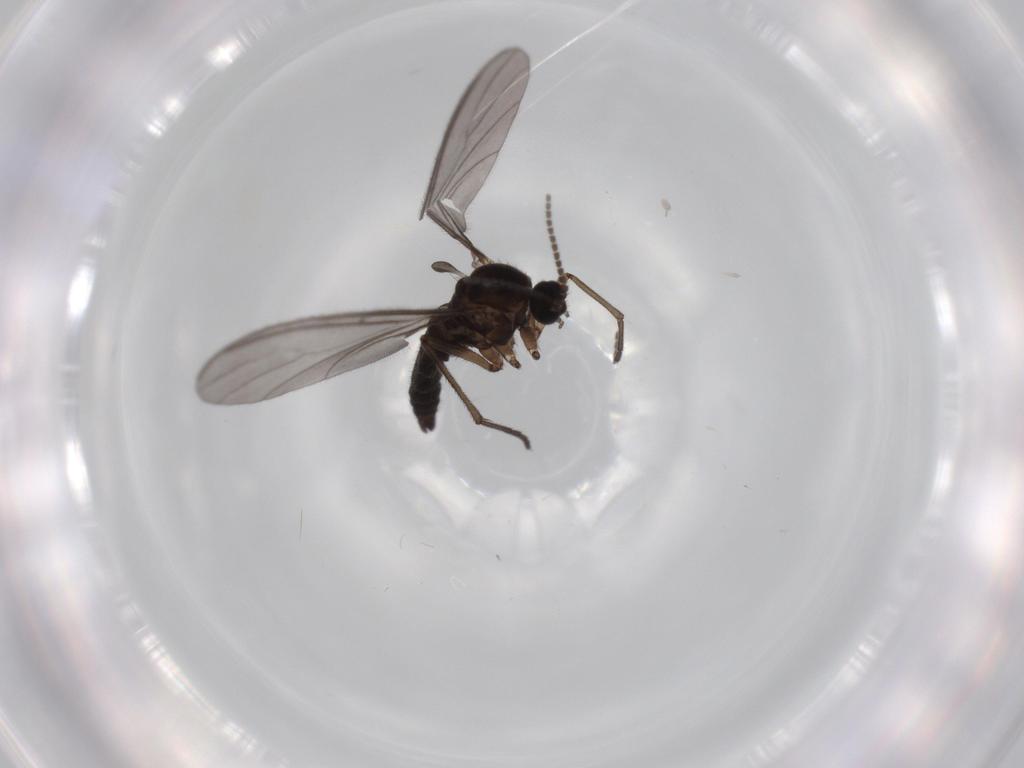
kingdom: Animalia
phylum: Arthropoda
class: Insecta
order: Diptera
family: Sciaridae
